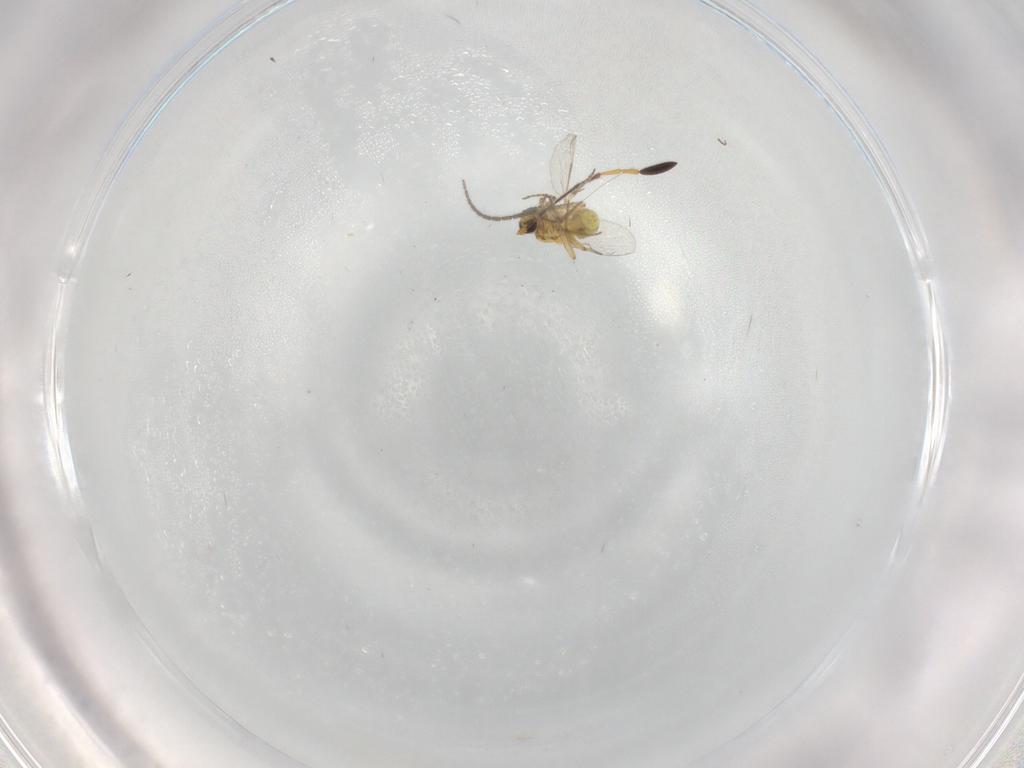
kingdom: Animalia
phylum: Arthropoda
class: Insecta
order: Diptera
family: Ceratopogonidae
